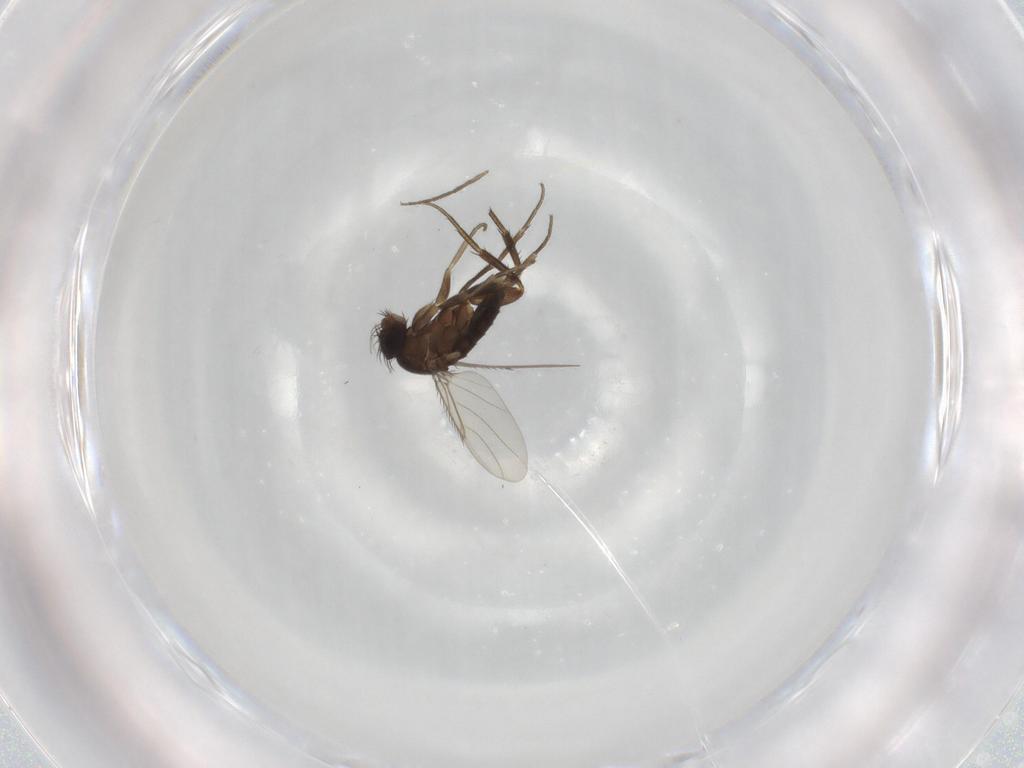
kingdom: Animalia
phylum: Arthropoda
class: Insecta
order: Diptera
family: Phoridae
